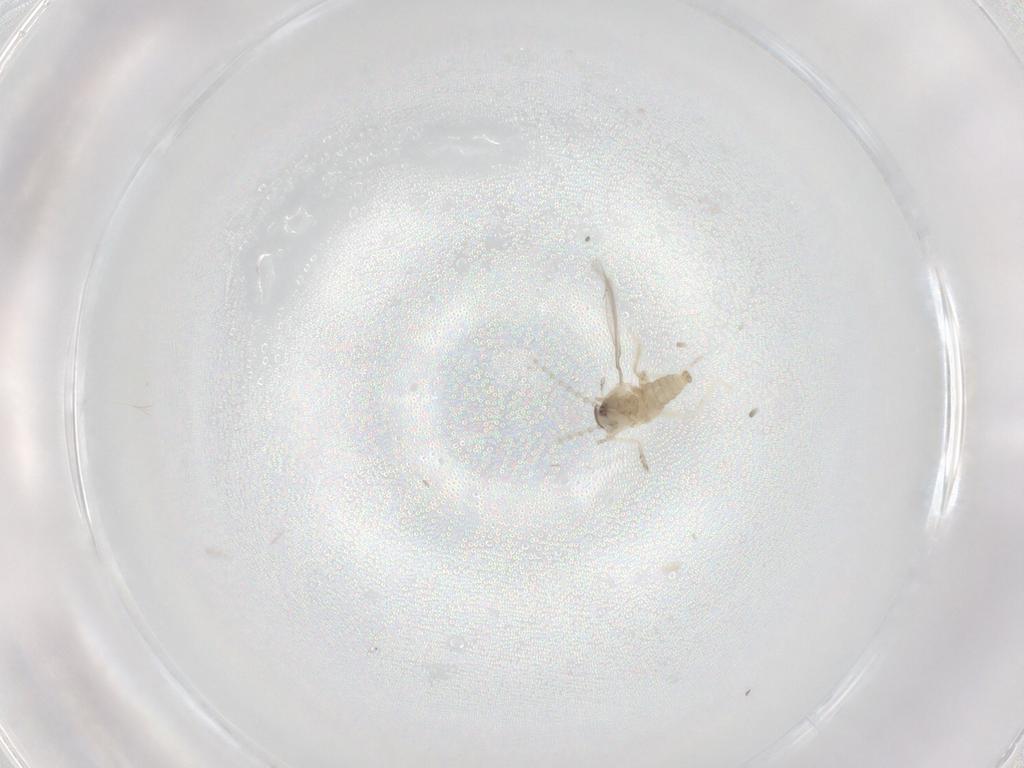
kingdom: Animalia
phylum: Arthropoda
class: Insecta
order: Diptera
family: Cecidomyiidae
